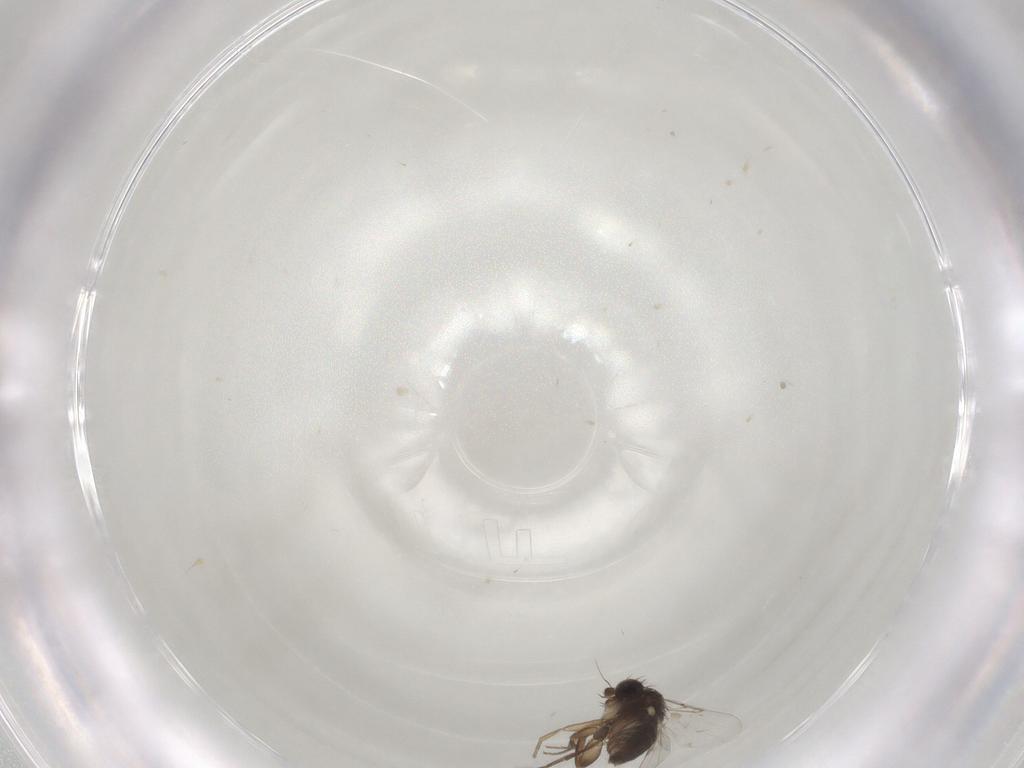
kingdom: Animalia
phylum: Arthropoda
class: Insecta
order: Diptera
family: Phoridae
